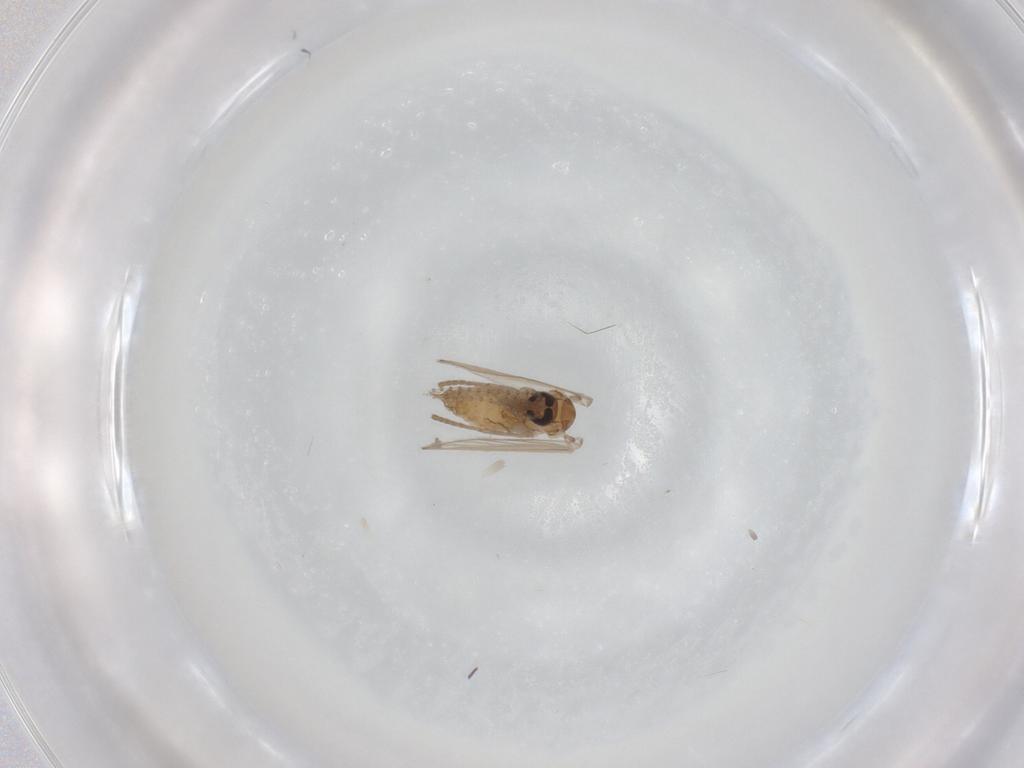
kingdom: Animalia
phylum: Arthropoda
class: Insecta
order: Diptera
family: Psychodidae
